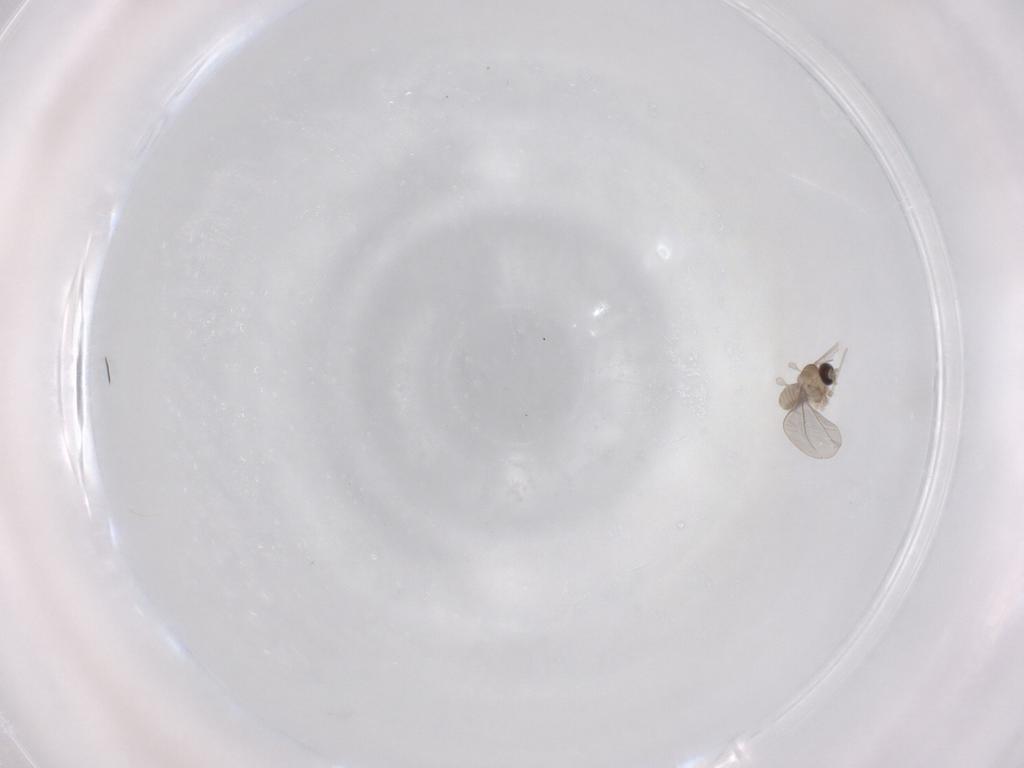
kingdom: Animalia
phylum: Arthropoda
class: Insecta
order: Diptera
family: Cecidomyiidae
